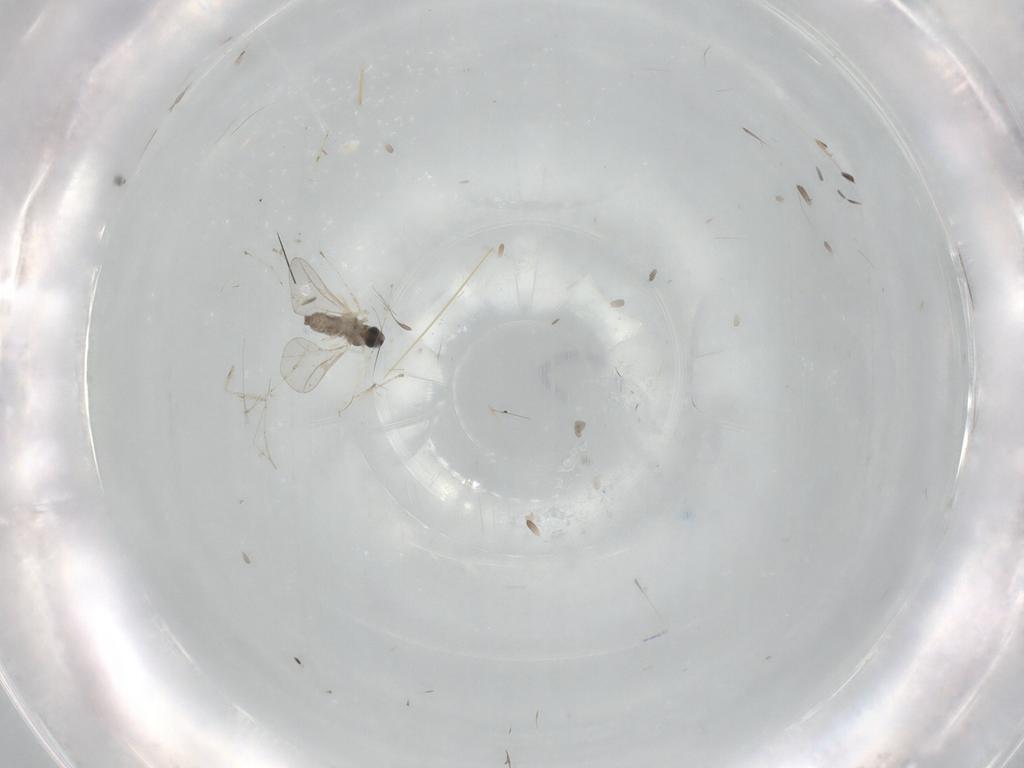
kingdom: Animalia
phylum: Arthropoda
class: Insecta
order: Diptera
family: Cecidomyiidae
